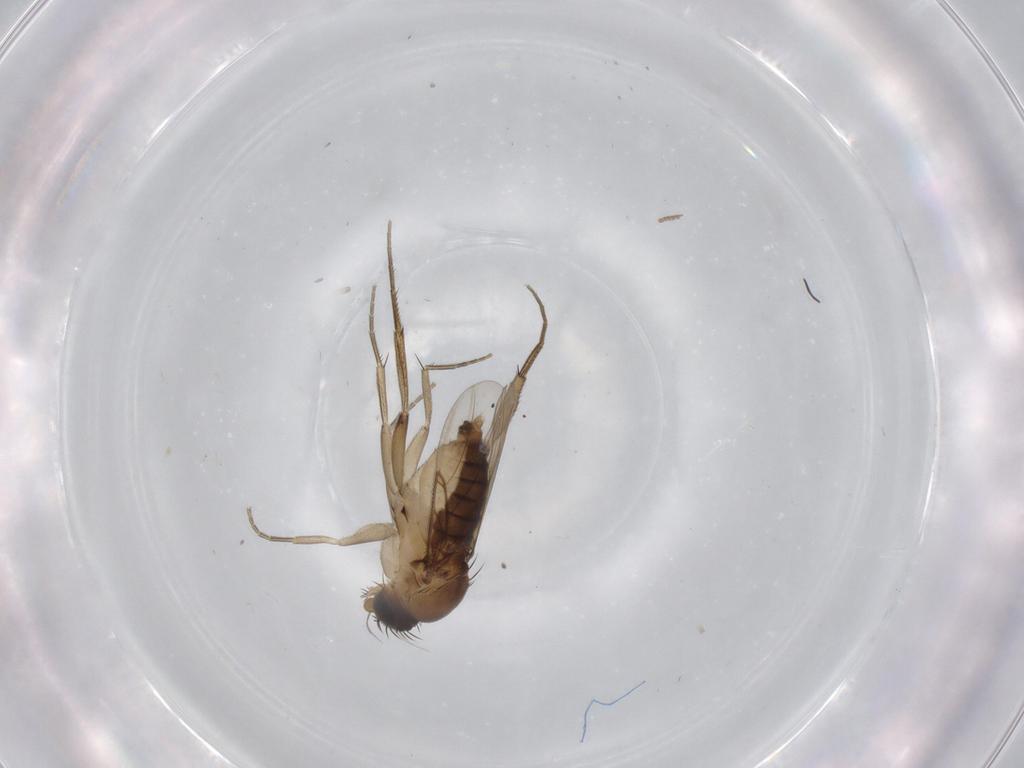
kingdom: Animalia
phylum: Arthropoda
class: Insecta
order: Diptera
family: Phoridae
